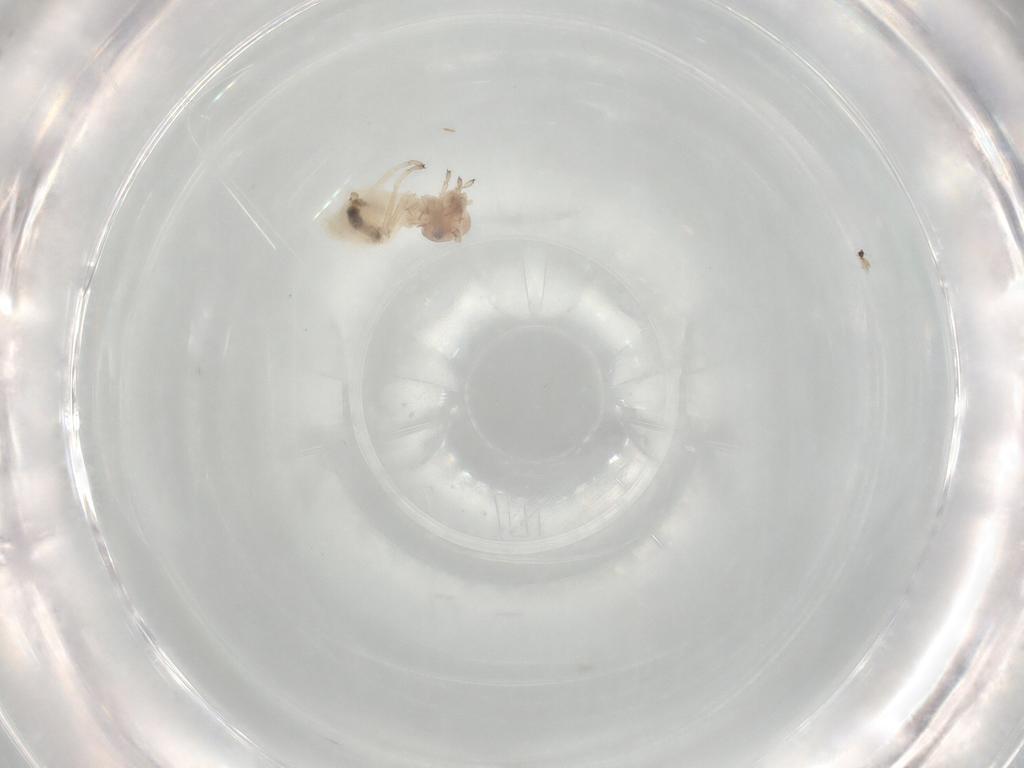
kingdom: Animalia
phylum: Arthropoda
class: Insecta
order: Psocodea
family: Stenopsocidae
